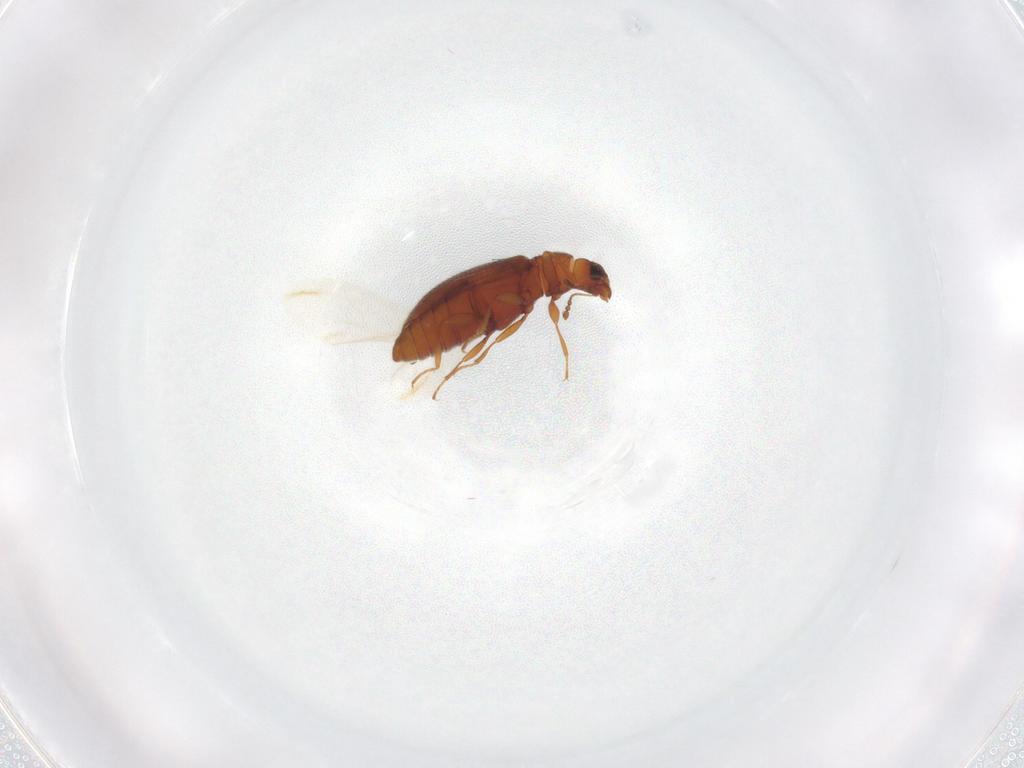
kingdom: Animalia
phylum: Arthropoda
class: Insecta
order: Coleoptera
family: Latridiidae
